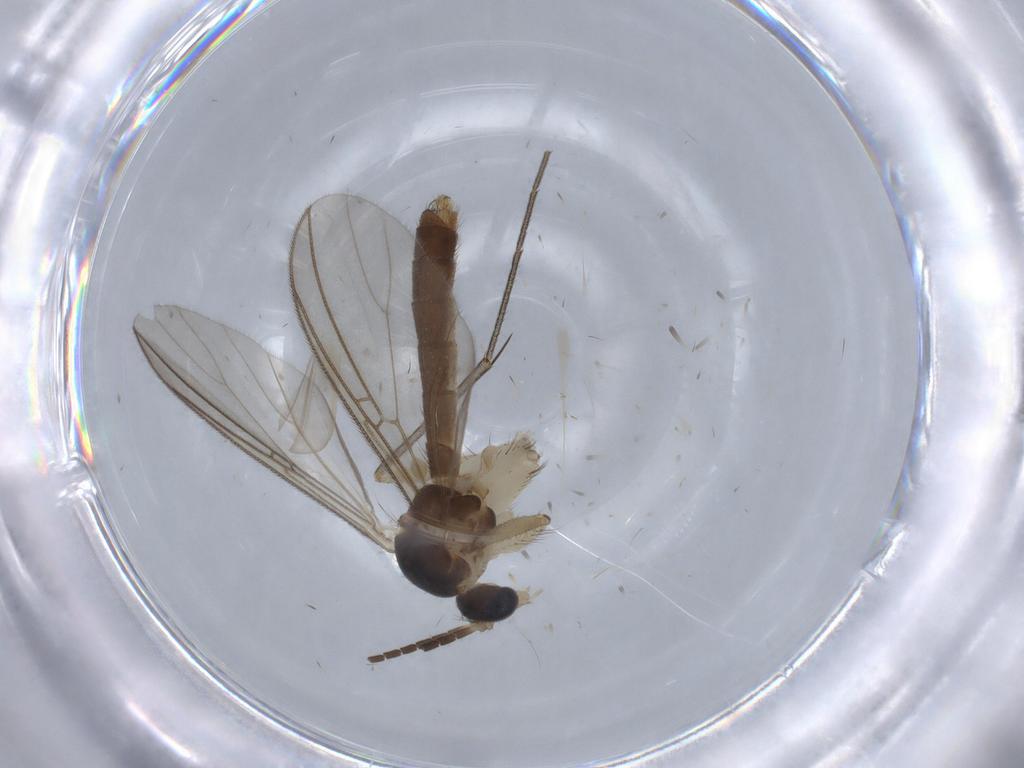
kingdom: Animalia
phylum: Arthropoda
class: Insecta
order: Diptera
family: Mycetophilidae
